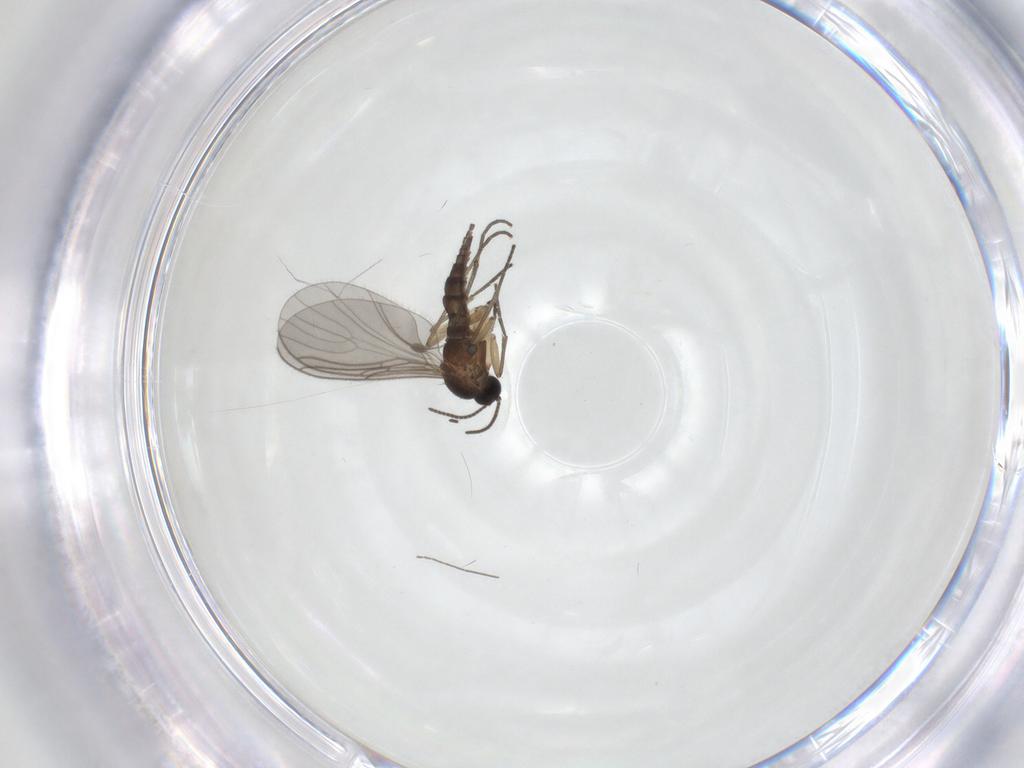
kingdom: Animalia
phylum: Arthropoda
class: Insecta
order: Diptera
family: Sciaridae
